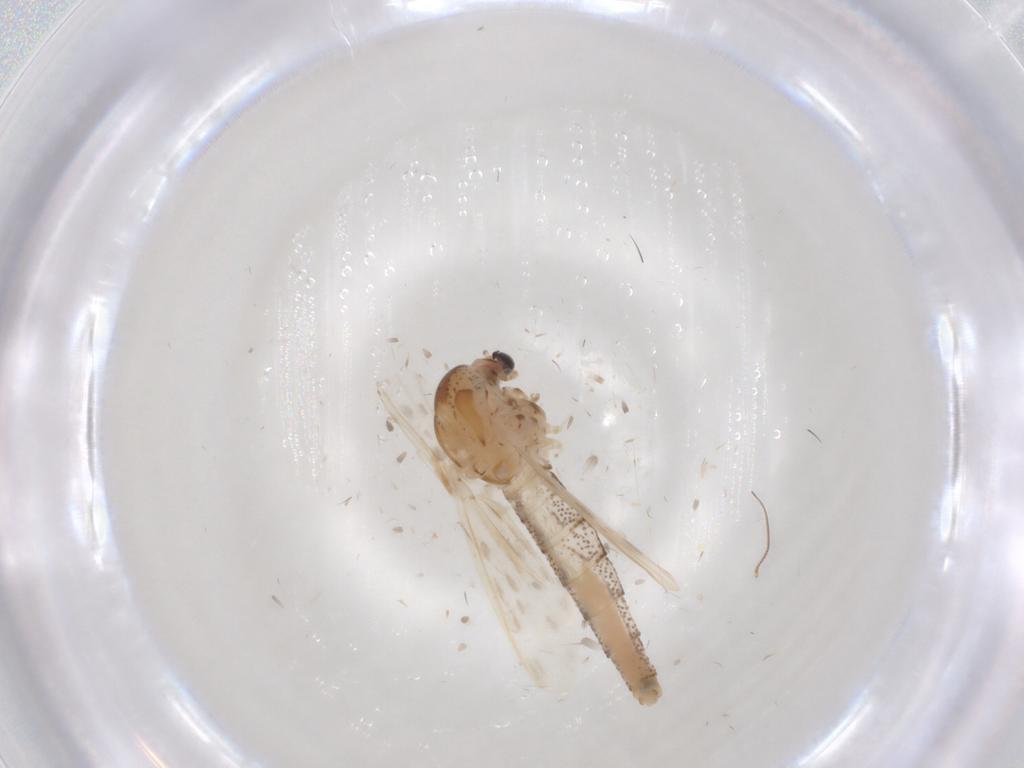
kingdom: Animalia
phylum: Arthropoda
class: Insecta
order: Diptera
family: Chaoboridae
